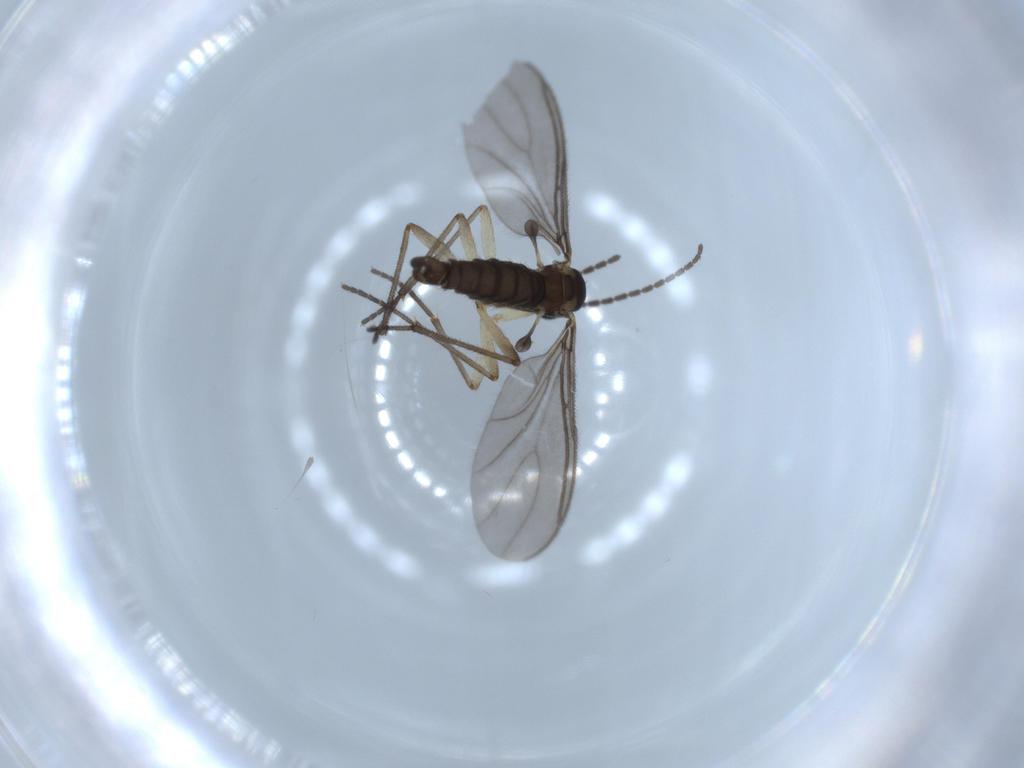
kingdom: Animalia
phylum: Arthropoda
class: Insecta
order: Diptera
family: Sciaridae
